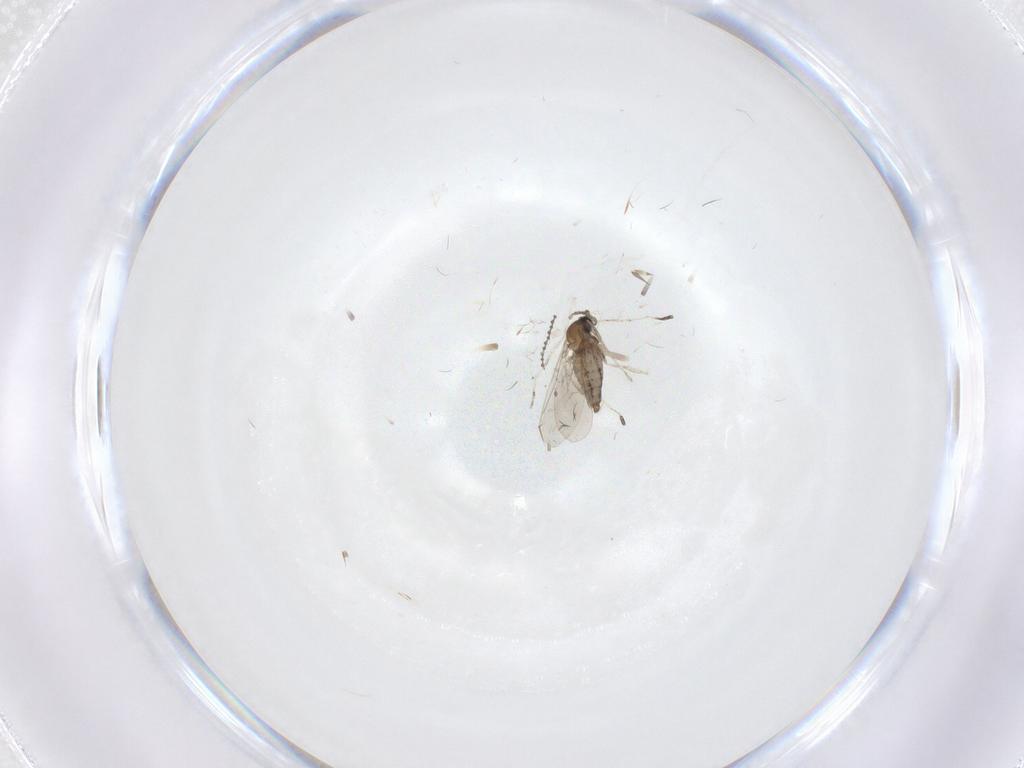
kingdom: Animalia
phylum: Arthropoda
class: Insecta
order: Diptera
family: Cecidomyiidae
